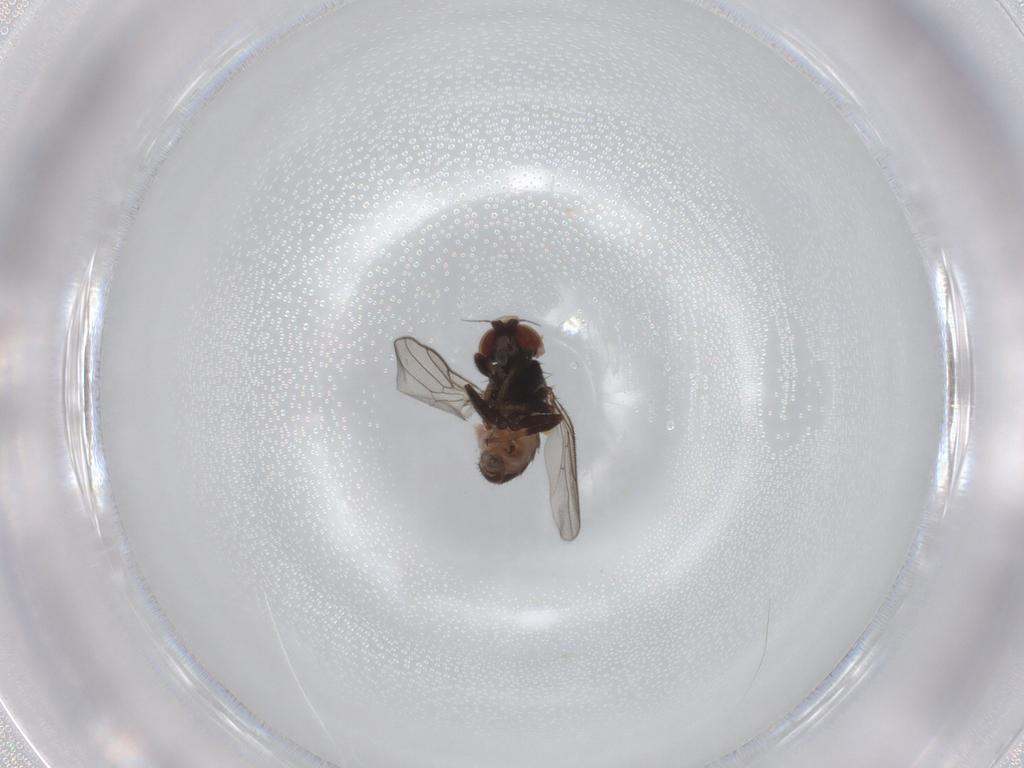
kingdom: Animalia
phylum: Arthropoda
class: Insecta
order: Diptera
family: Chloropidae
